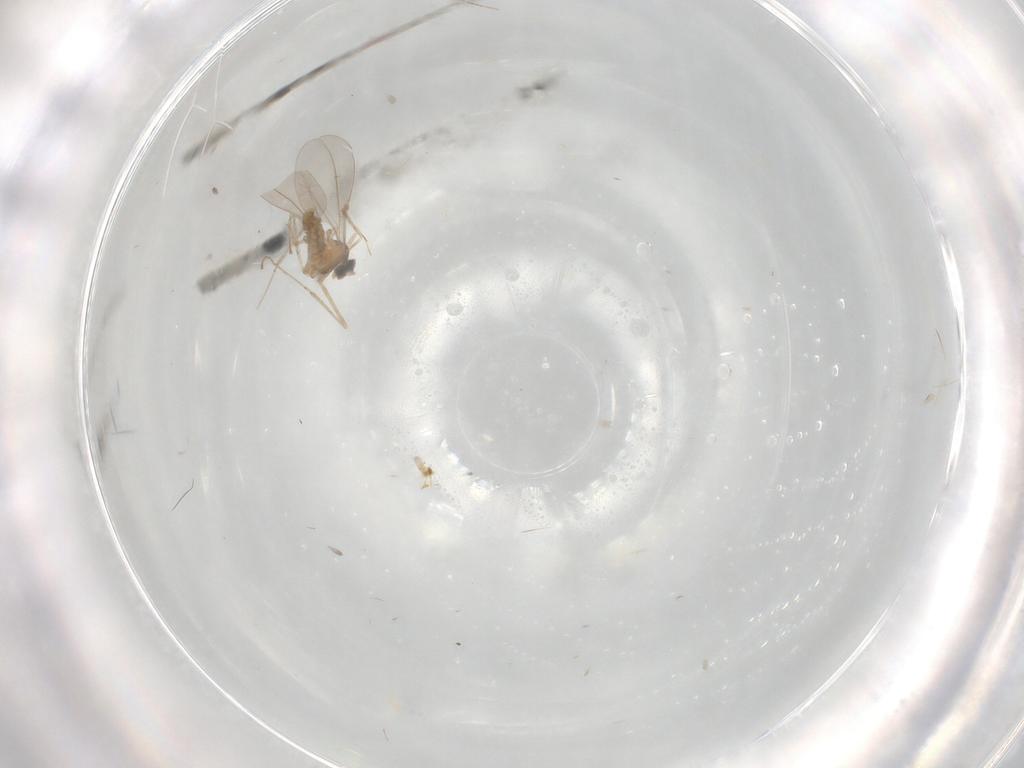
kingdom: Animalia
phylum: Arthropoda
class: Insecta
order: Diptera
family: Cecidomyiidae
